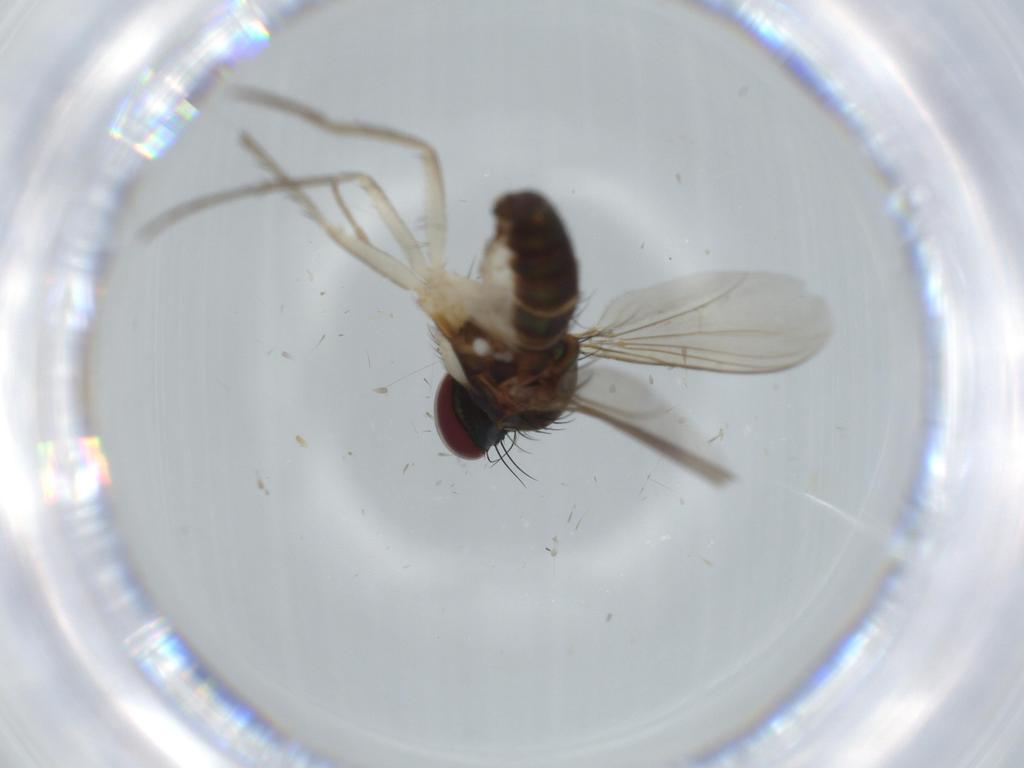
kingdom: Animalia
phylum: Arthropoda
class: Insecta
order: Diptera
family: Dolichopodidae
